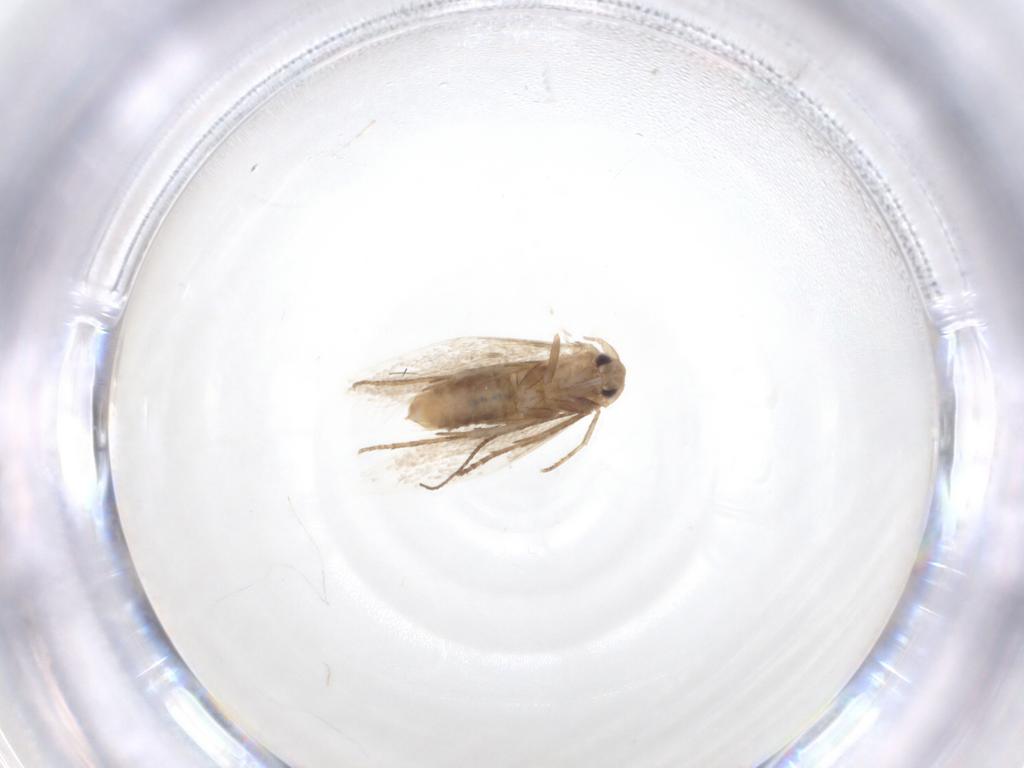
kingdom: Animalia
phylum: Arthropoda
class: Insecta
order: Lepidoptera
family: Bucculatricidae
